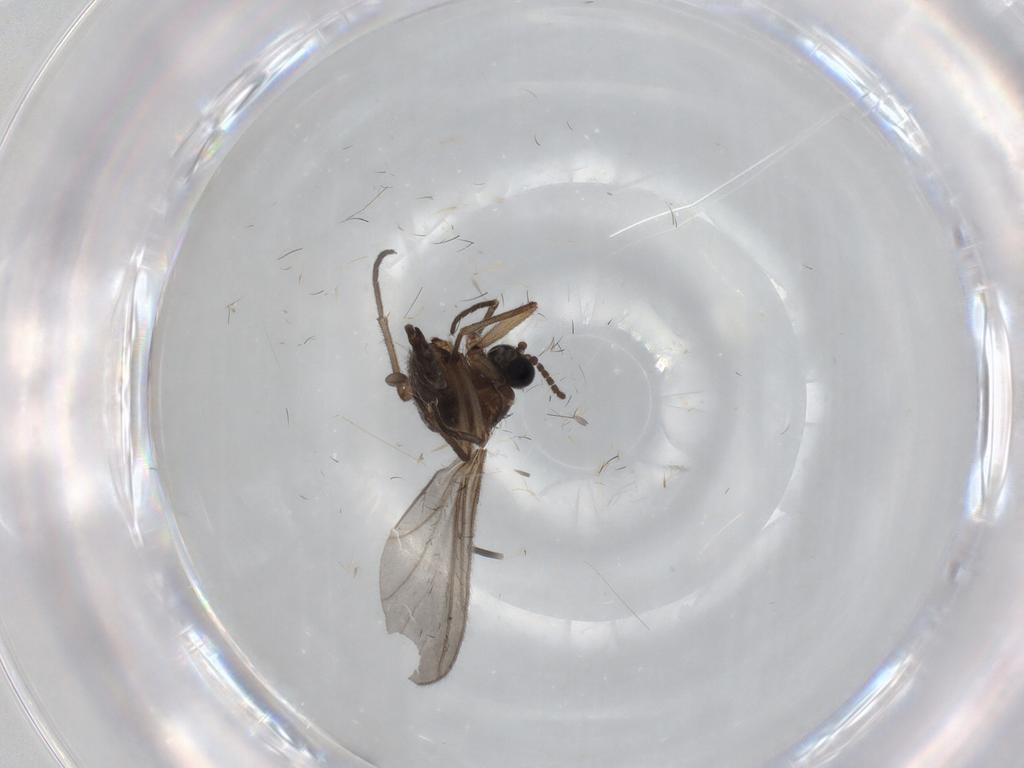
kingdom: Animalia
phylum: Arthropoda
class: Insecta
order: Diptera
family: Sciaridae
